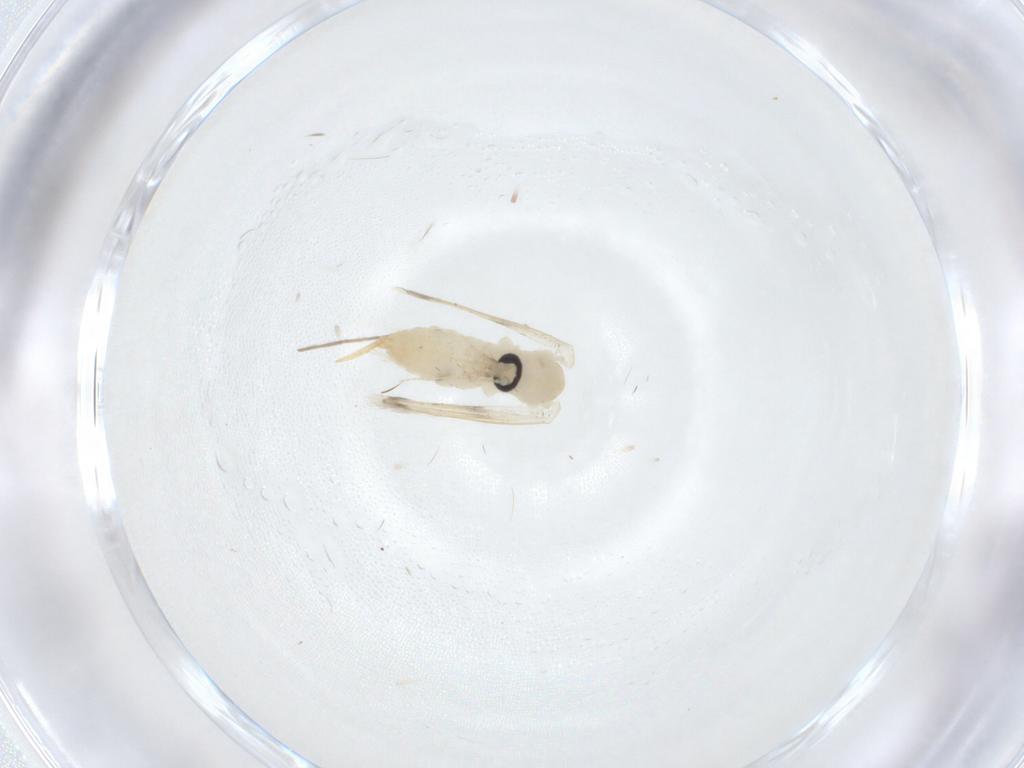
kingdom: Animalia
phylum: Arthropoda
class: Insecta
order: Diptera
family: Psychodidae
